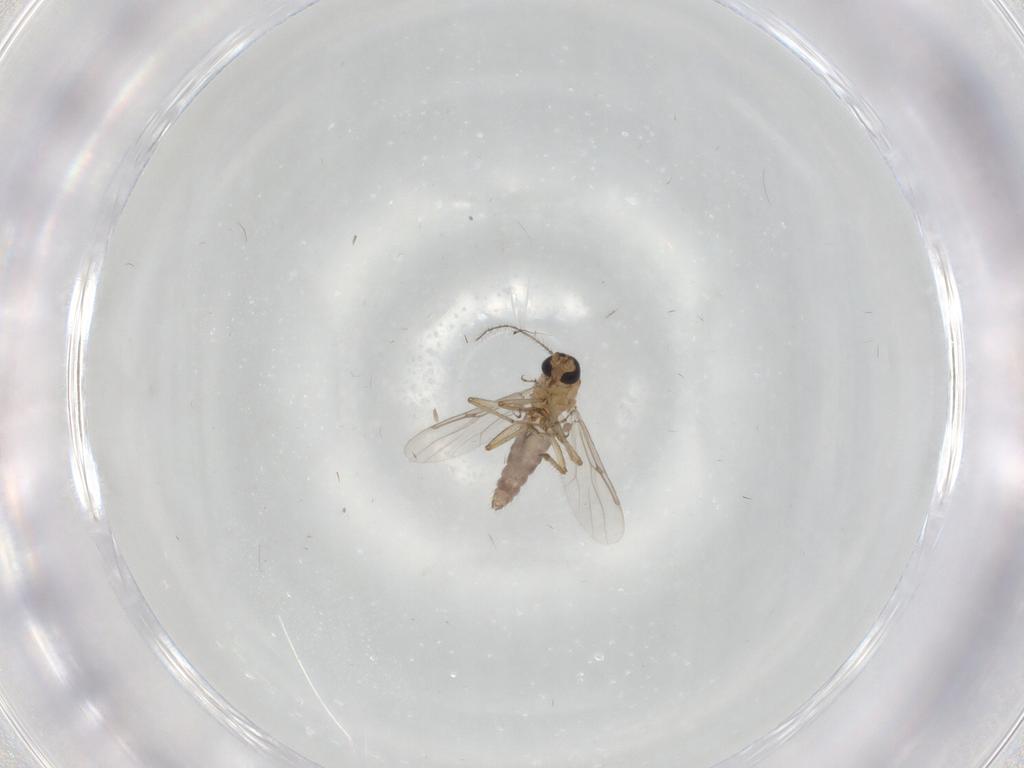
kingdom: Animalia
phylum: Arthropoda
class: Insecta
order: Diptera
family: Ceratopogonidae
